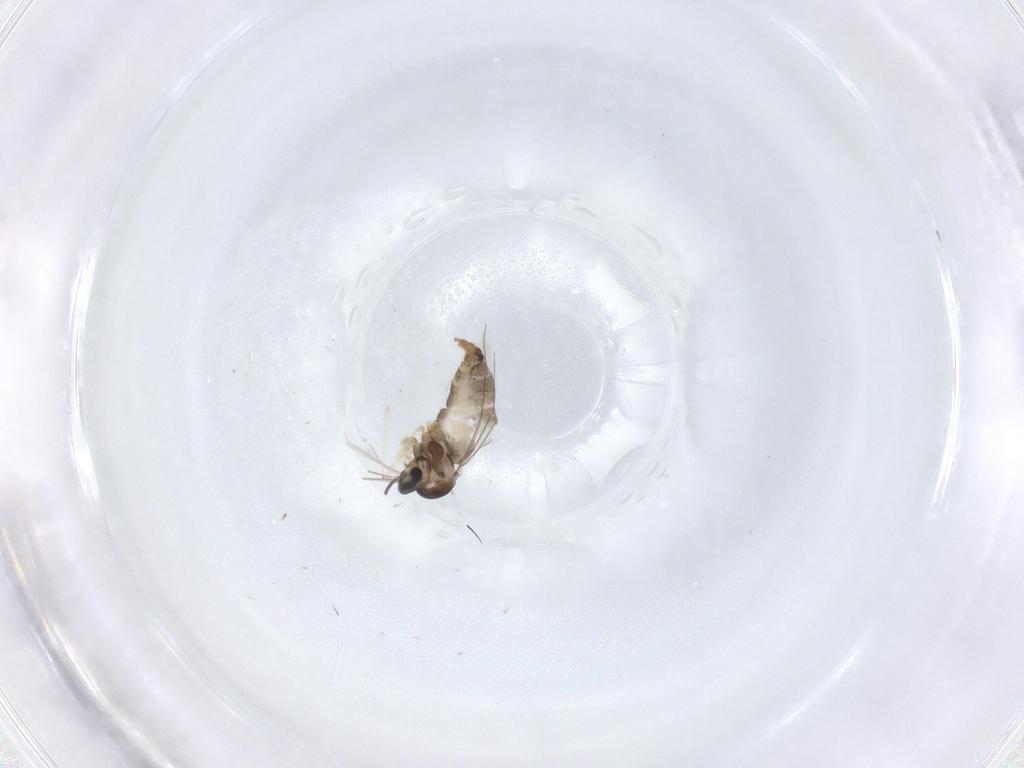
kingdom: Animalia
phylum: Arthropoda
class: Insecta
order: Diptera
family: Cecidomyiidae
